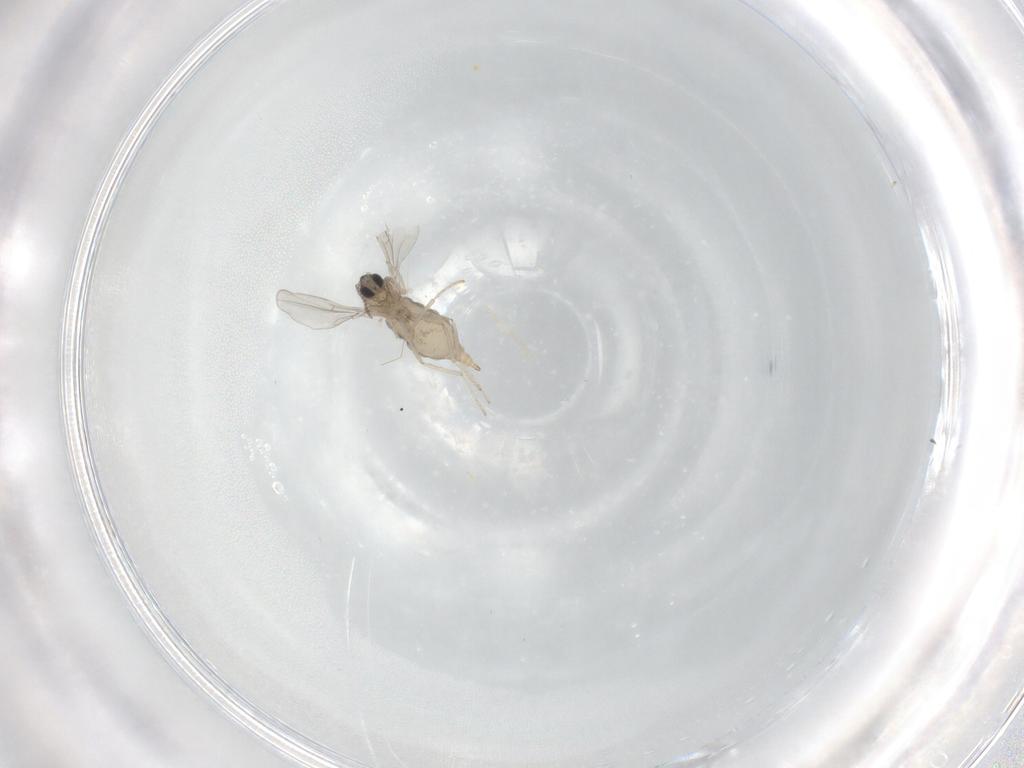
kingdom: Animalia
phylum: Arthropoda
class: Insecta
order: Diptera
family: Cecidomyiidae
